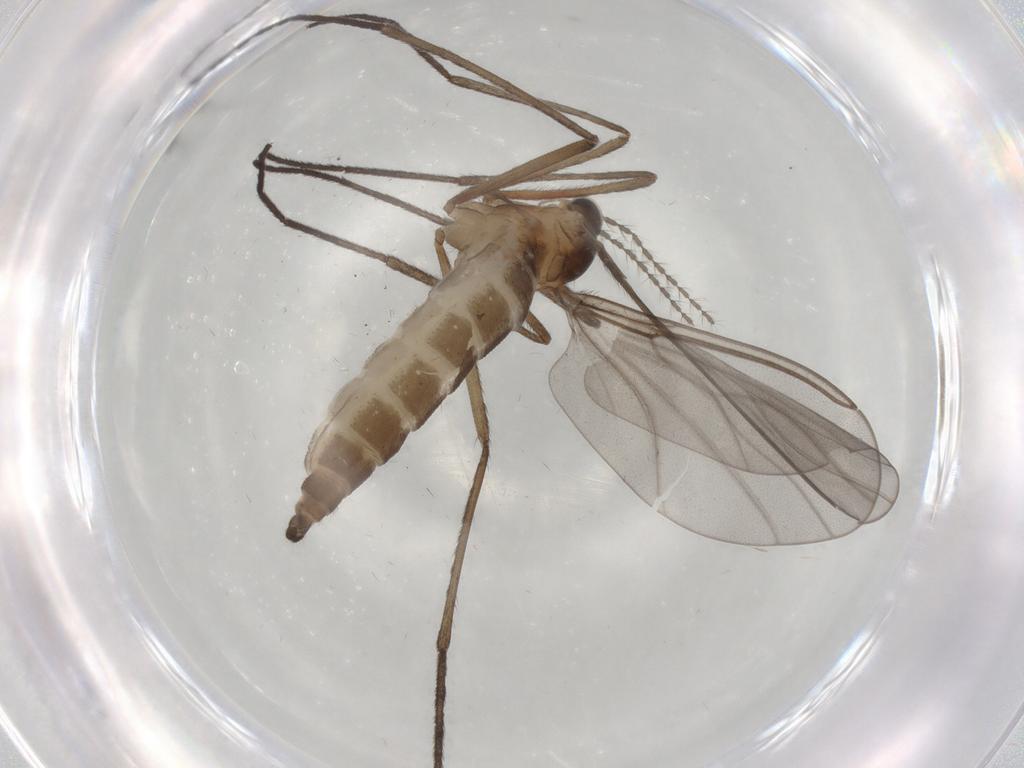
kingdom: Animalia
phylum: Arthropoda
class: Insecta
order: Diptera
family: Cecidomyiidae
